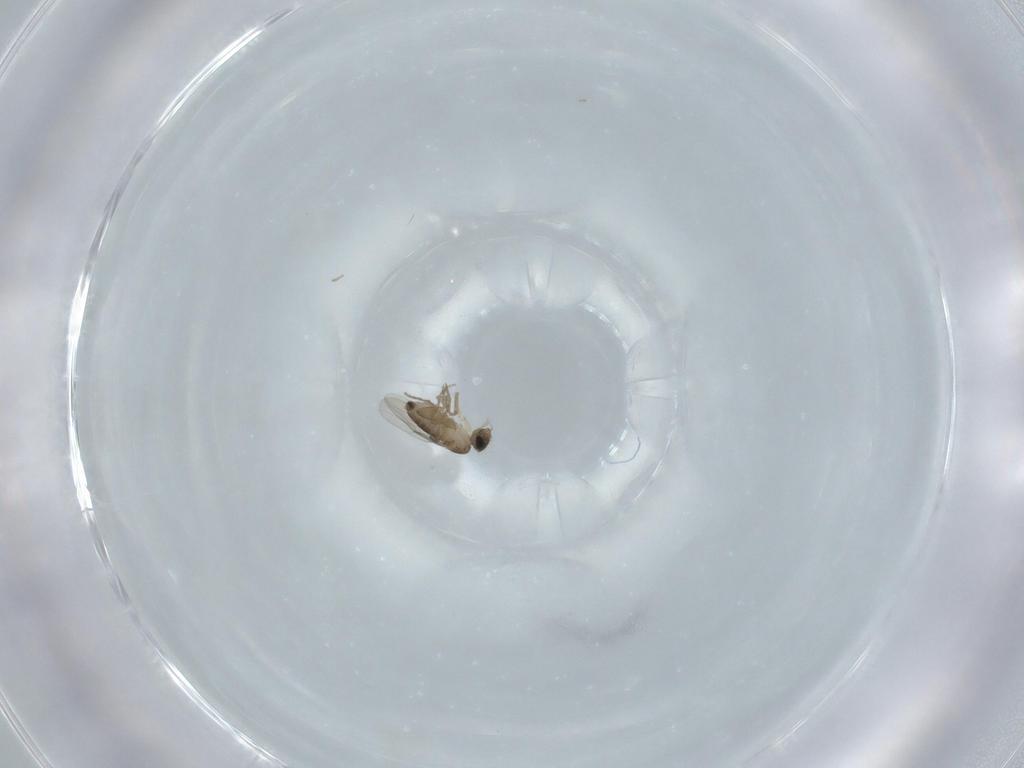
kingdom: Animalia
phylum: Arthropoda
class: Insecta
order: Diptera
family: Phoridae
